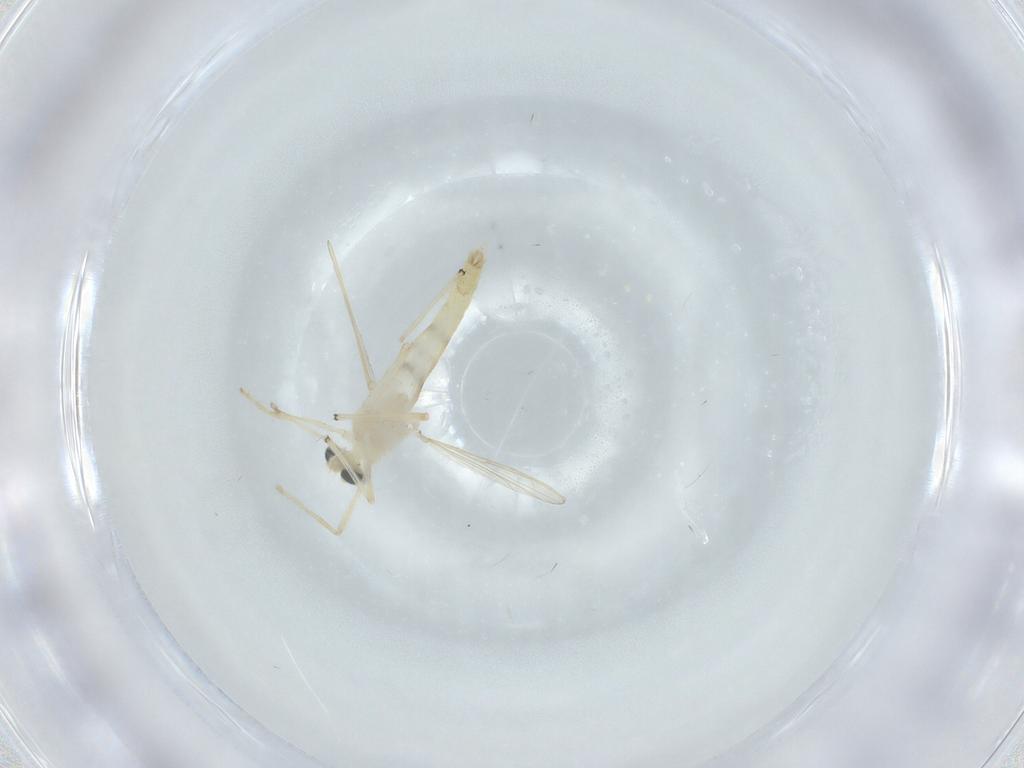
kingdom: Animalia
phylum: Arthropoda
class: Insecta
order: Diptera
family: Chironomidae
